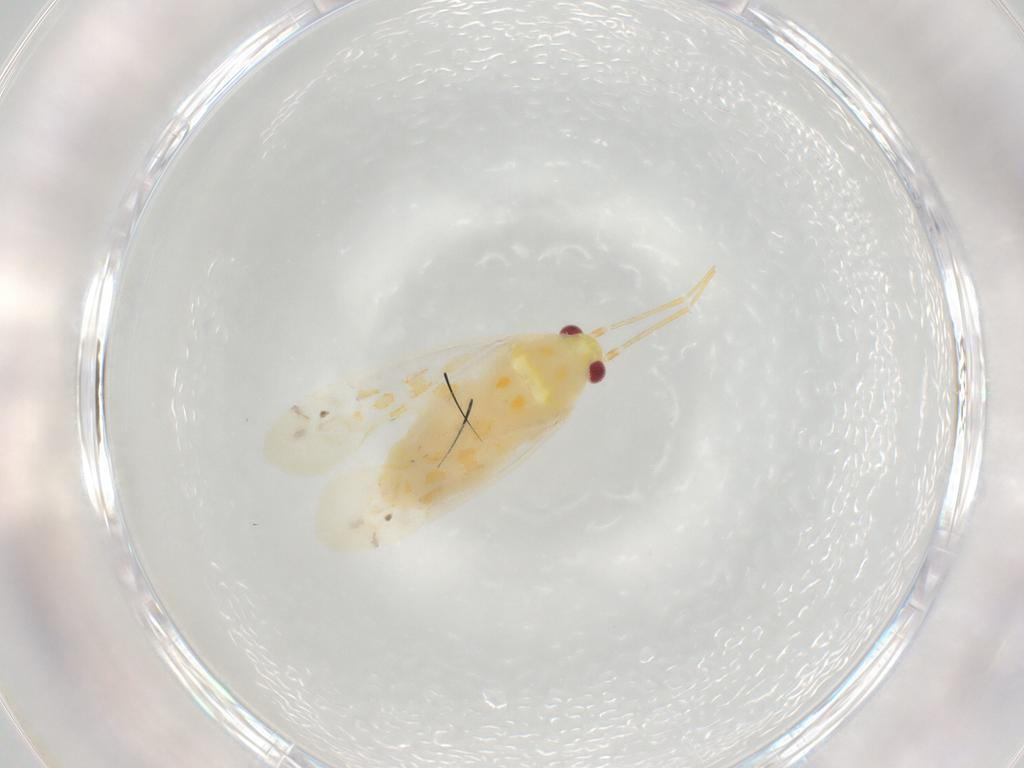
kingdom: Animalia
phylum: Arthropoda
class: Insecta
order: Hemiptera
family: Miridae
